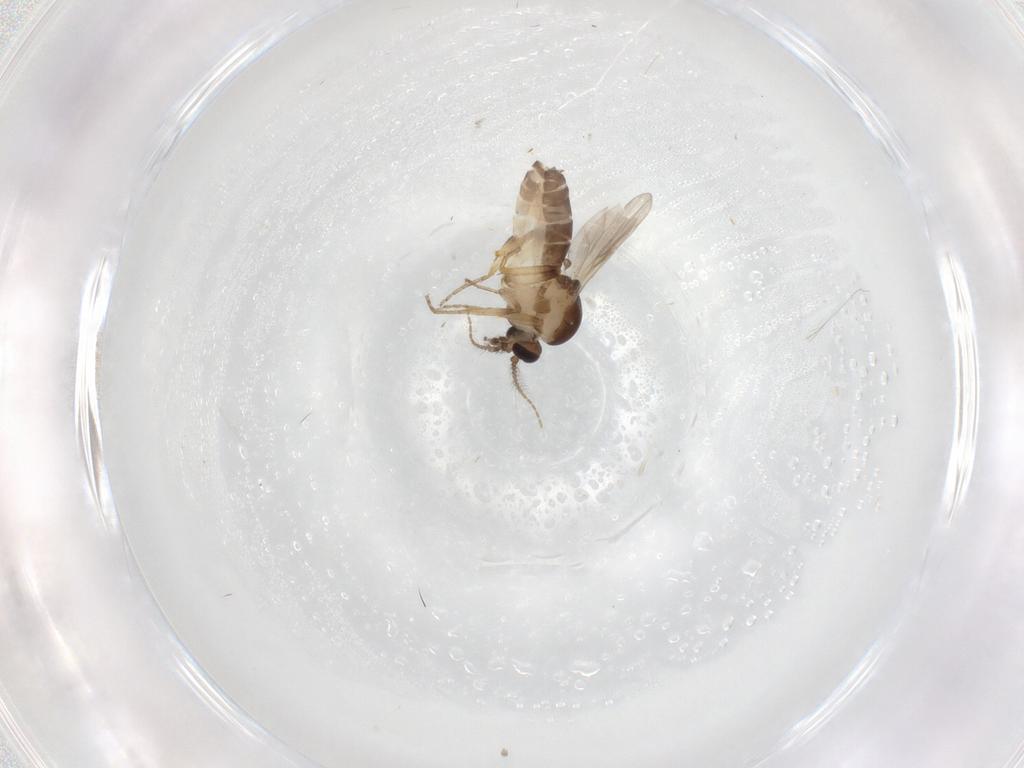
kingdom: Animalia
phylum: Arthropoda
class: Insecta
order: Diptera
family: Ceratopogonidae
